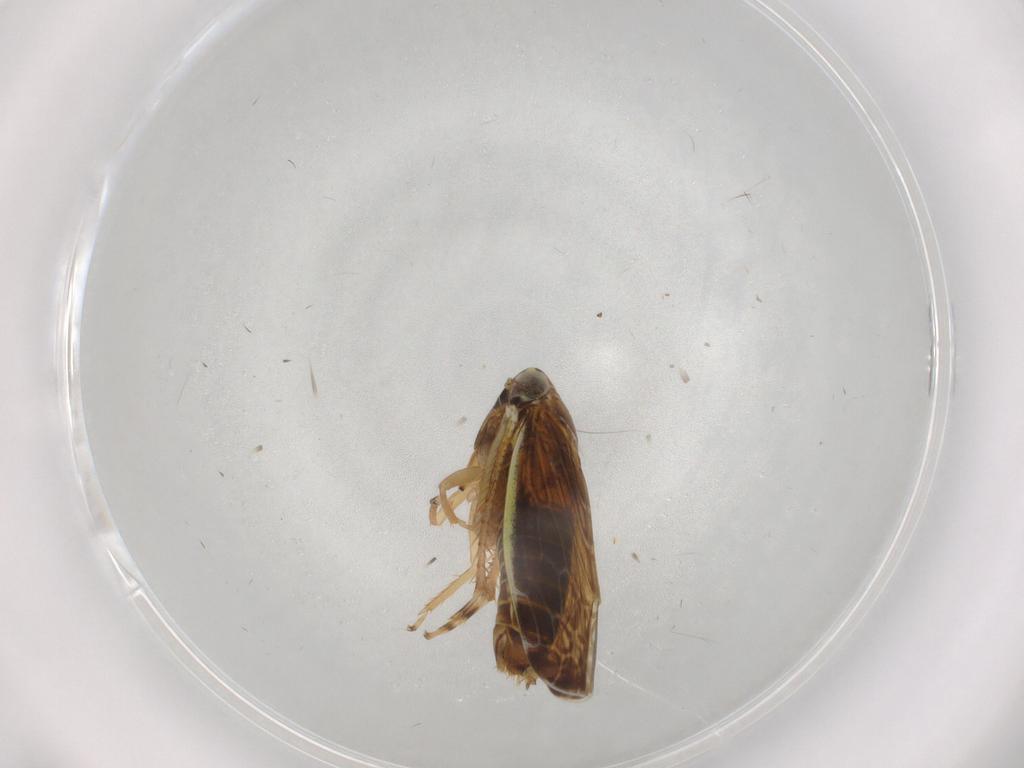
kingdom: Animalia
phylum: Arthropoda
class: Insecta
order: Hemiptera
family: Cicadellidae
